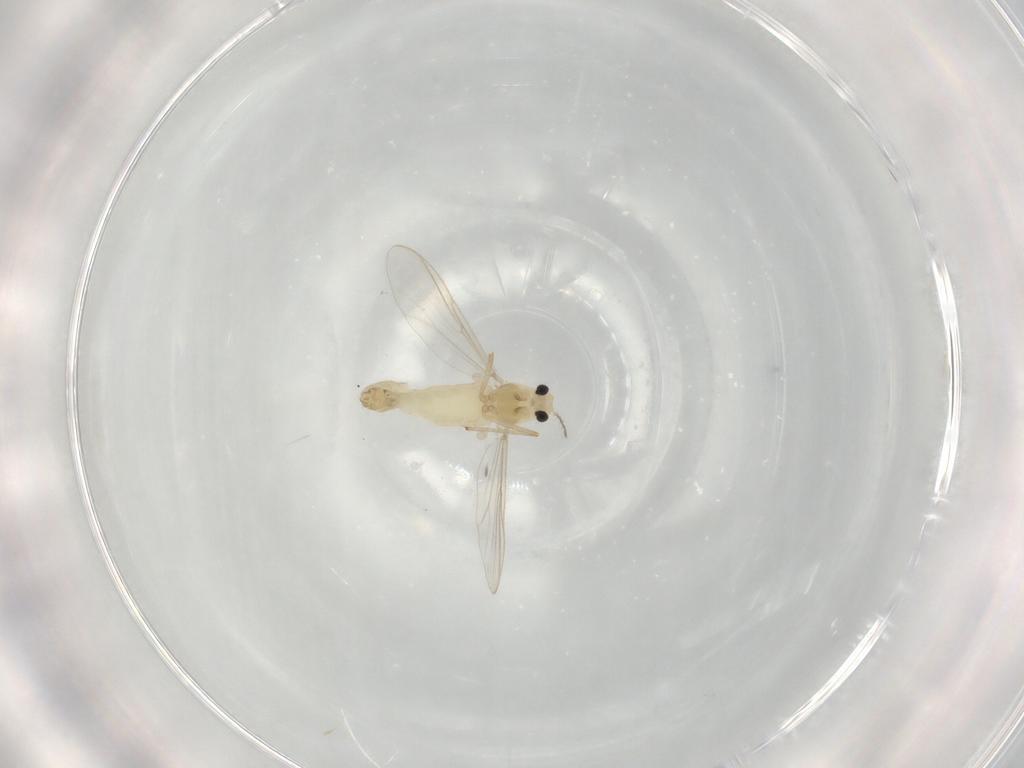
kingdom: Animalia
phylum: Arthropoda
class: Insecta
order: Diptera
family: Chironomidae
